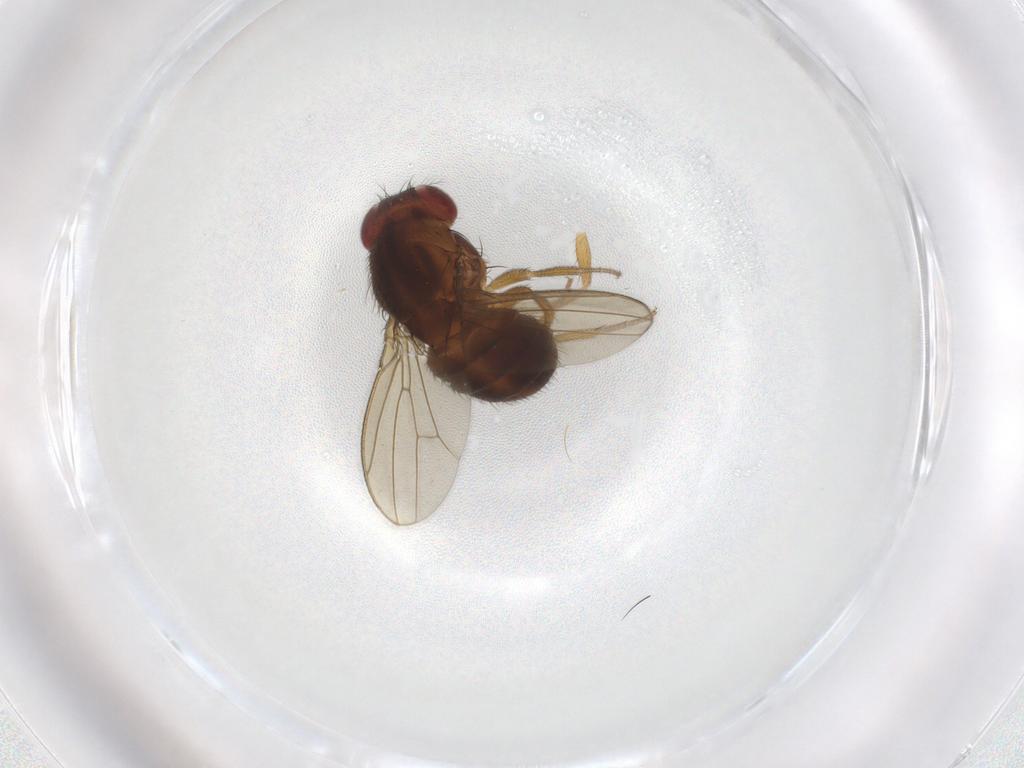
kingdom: Animalia
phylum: Arthropoda
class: Insecta
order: Diptera
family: Drosophilidae
